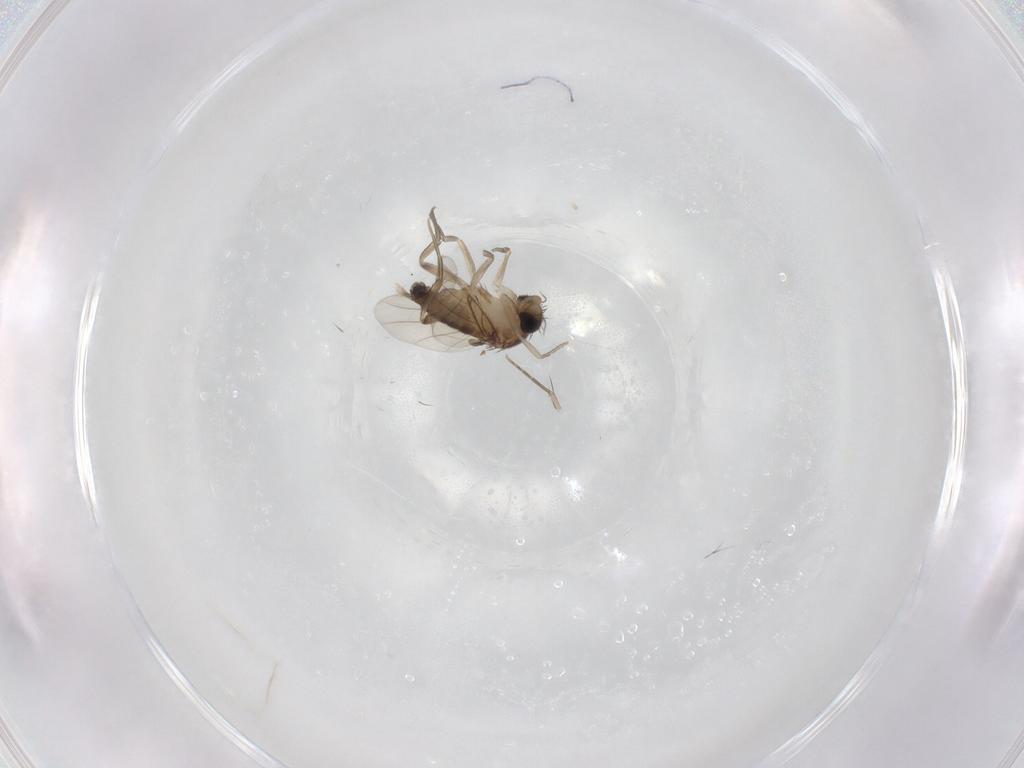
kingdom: Animalia
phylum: Arthropoda
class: Insecta
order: Diptera
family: Phoridae
